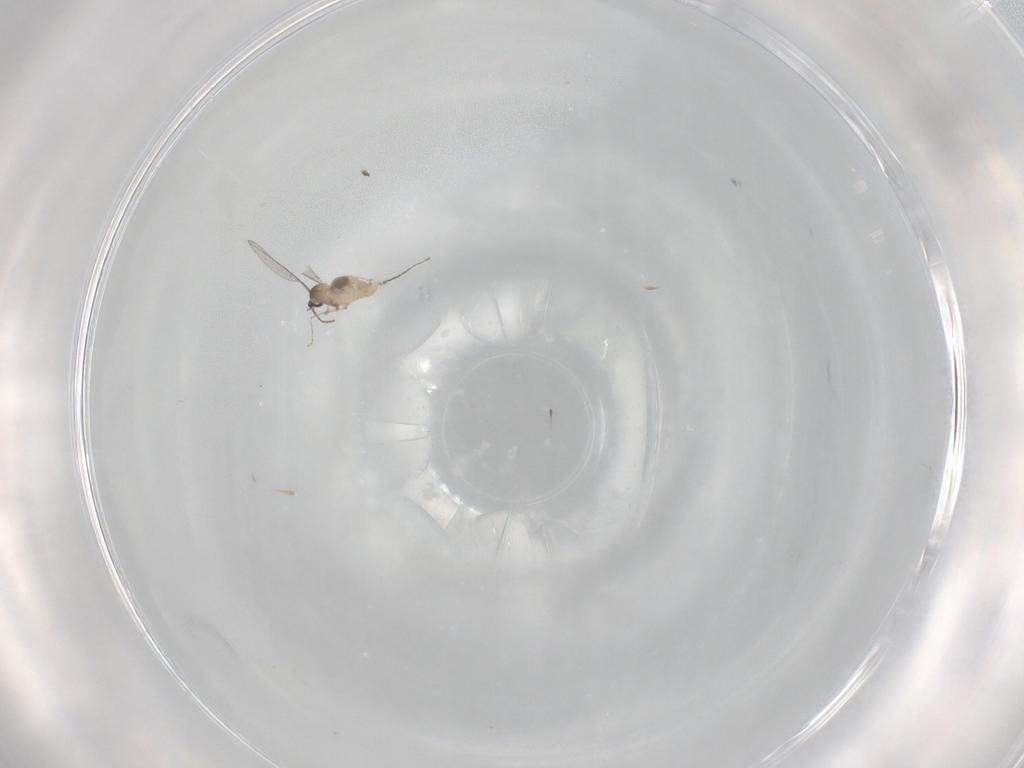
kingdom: Animalia
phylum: Arthropoda
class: Insecta
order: Diptera
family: Cecidomyiidae
